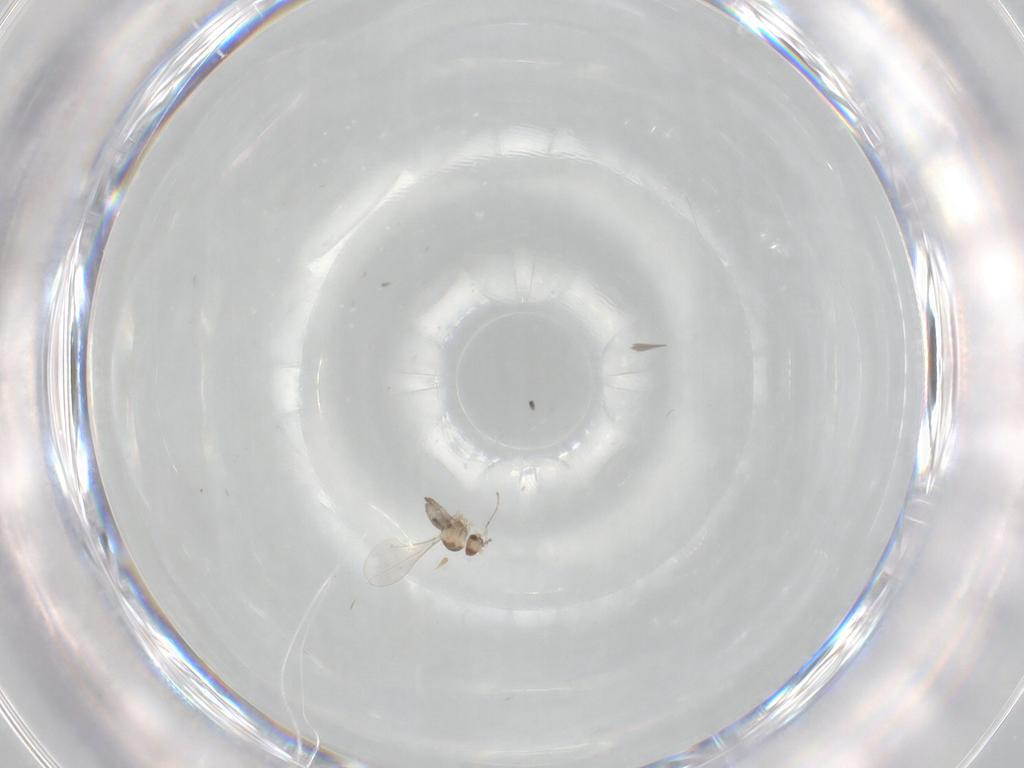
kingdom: Animalia
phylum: Arthropoda
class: Insecta
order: Diptera
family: Cecidomyiidae
